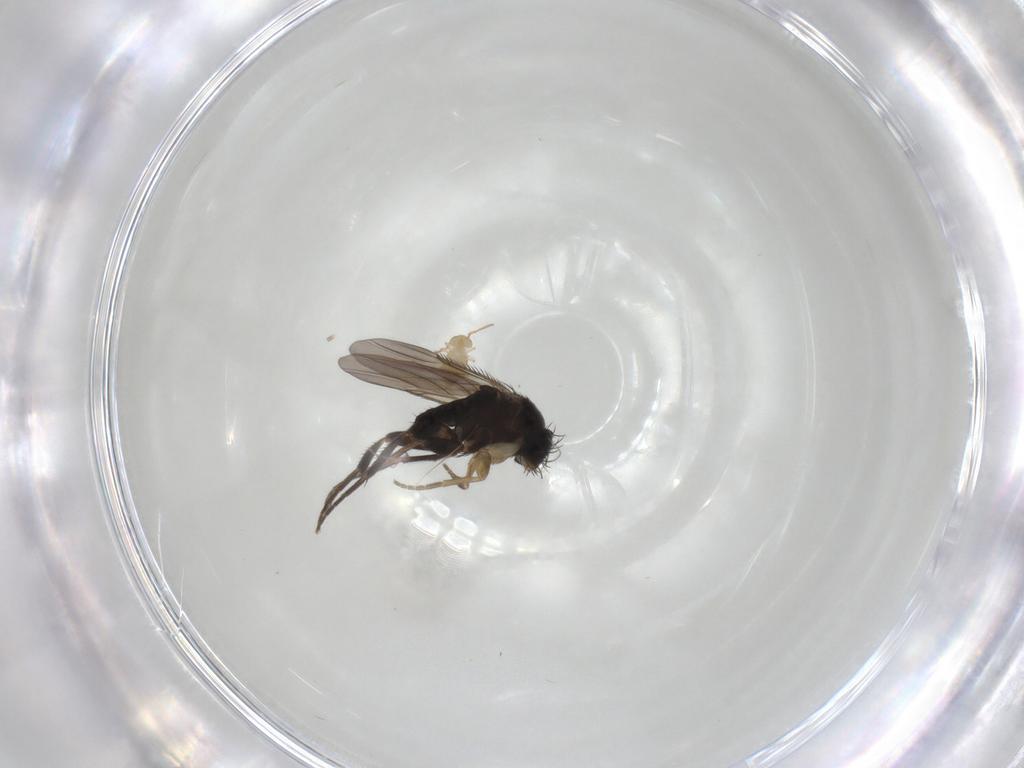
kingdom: Animalia
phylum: Arthropoda
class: Insecta
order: Diptera
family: Phoridae
